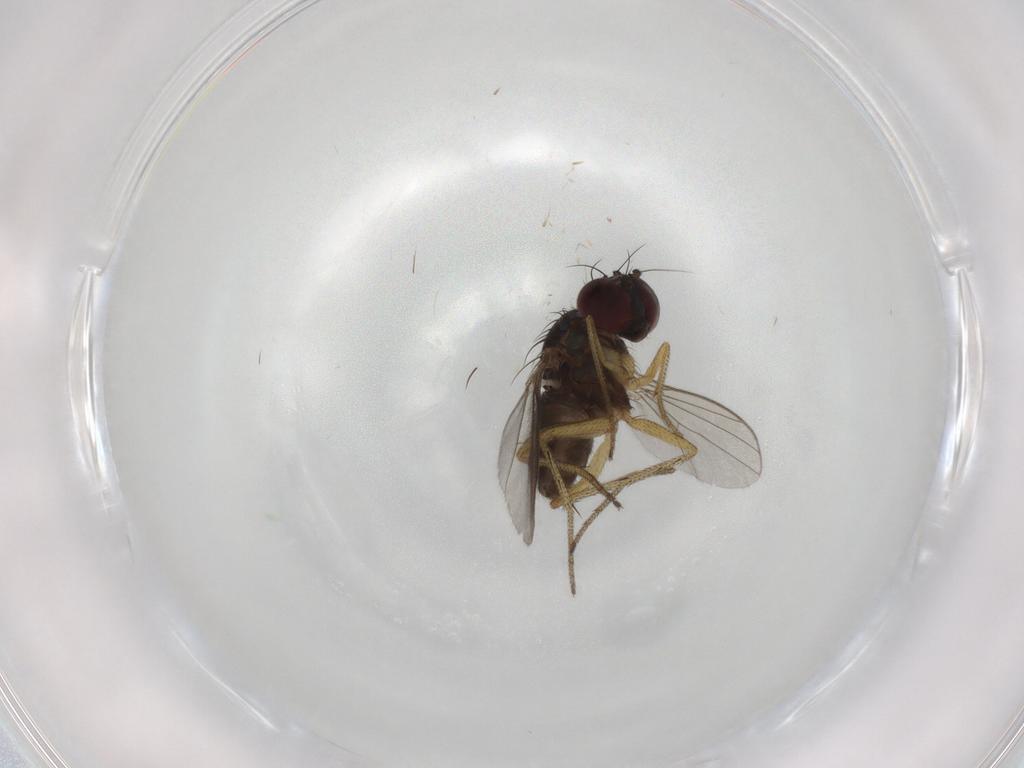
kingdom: Animalia
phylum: Arthropoda
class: Insecta
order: Diptera
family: Dolichopodidae
